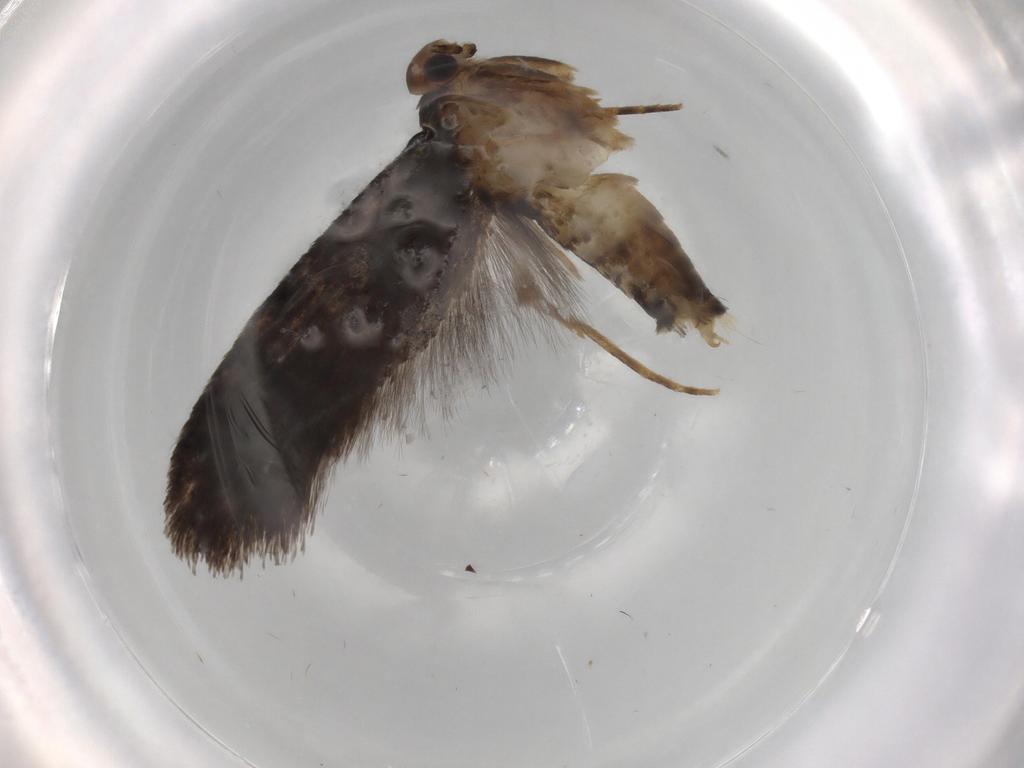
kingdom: Animalia
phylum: Arthropoda
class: Insecta
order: Lepidoptera
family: Tineidae
